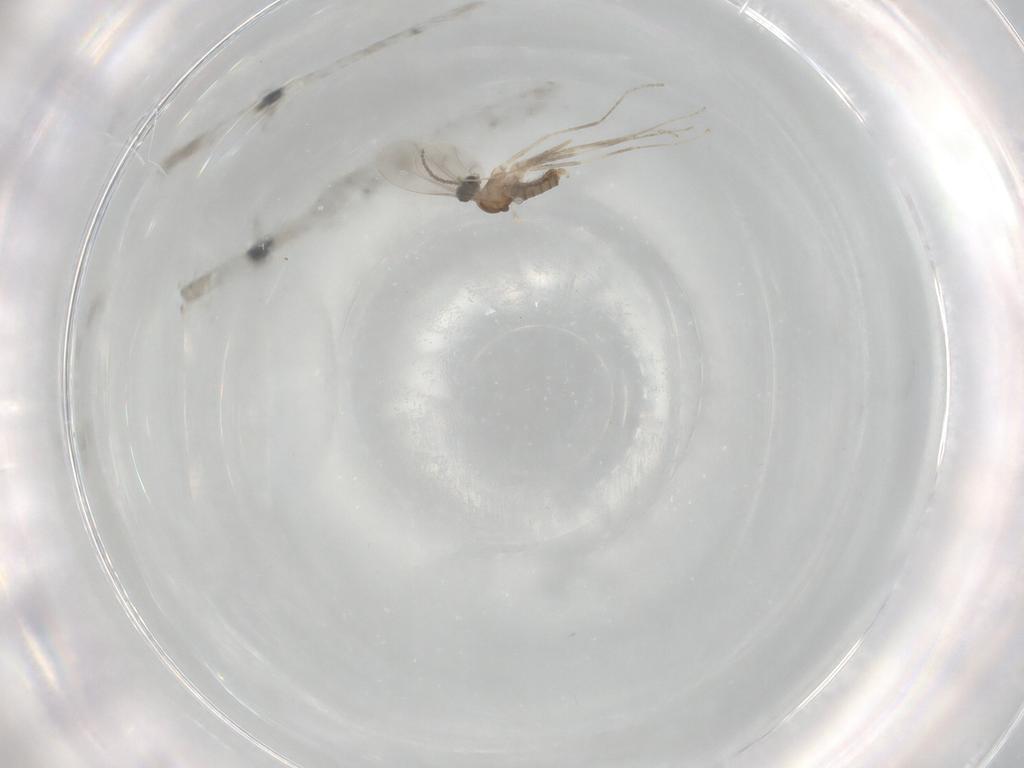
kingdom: Animalia
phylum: Arthropoda
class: Insecta
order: Diptera
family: Cecidomyiidae
